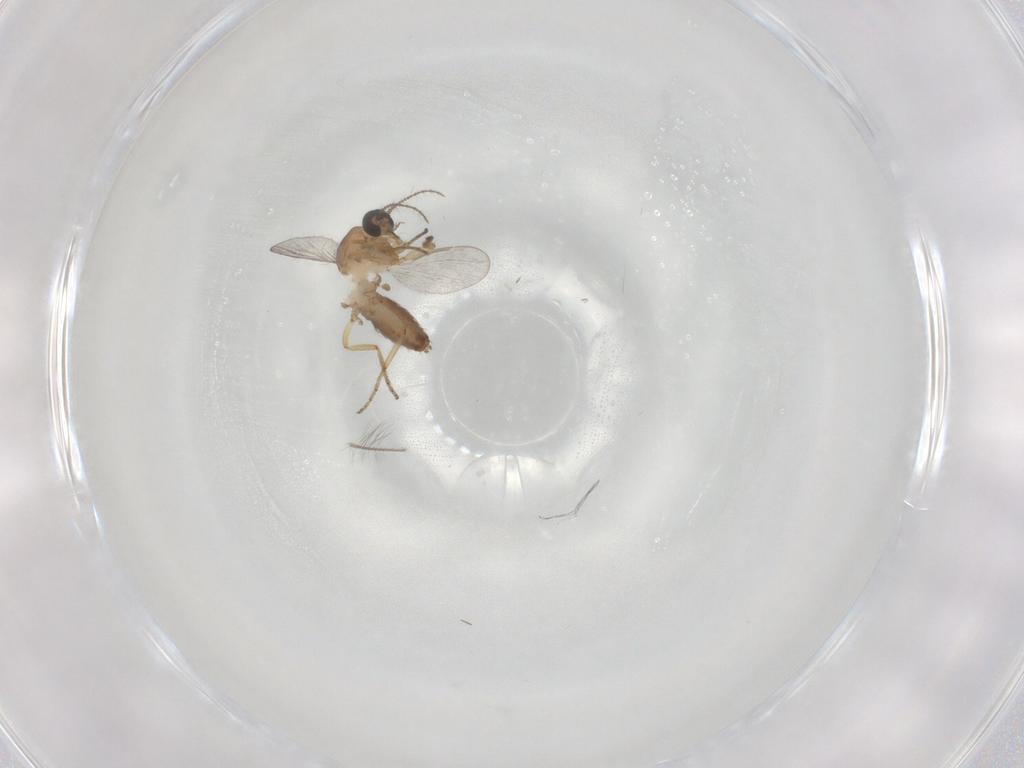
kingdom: Animalia
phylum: Arthropoda
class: Insecta
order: Diptera
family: Ceratopogonidae
